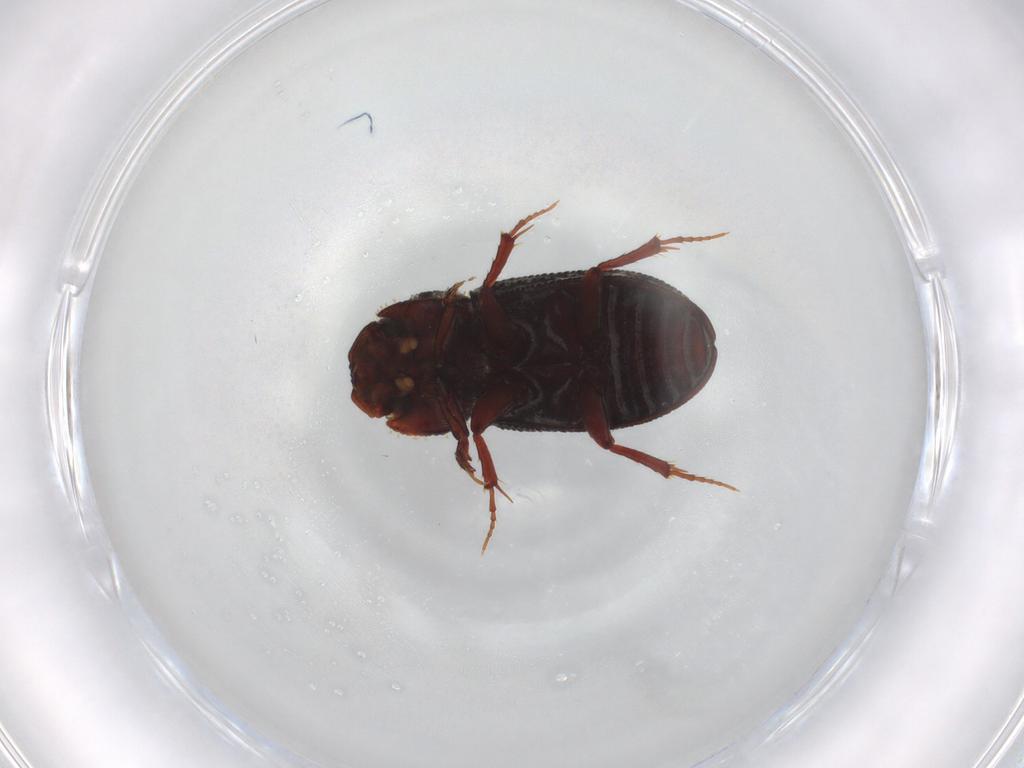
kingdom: Animalia
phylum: Arthropoda
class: Insecta
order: Coleoptera
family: Scarabaeidae
